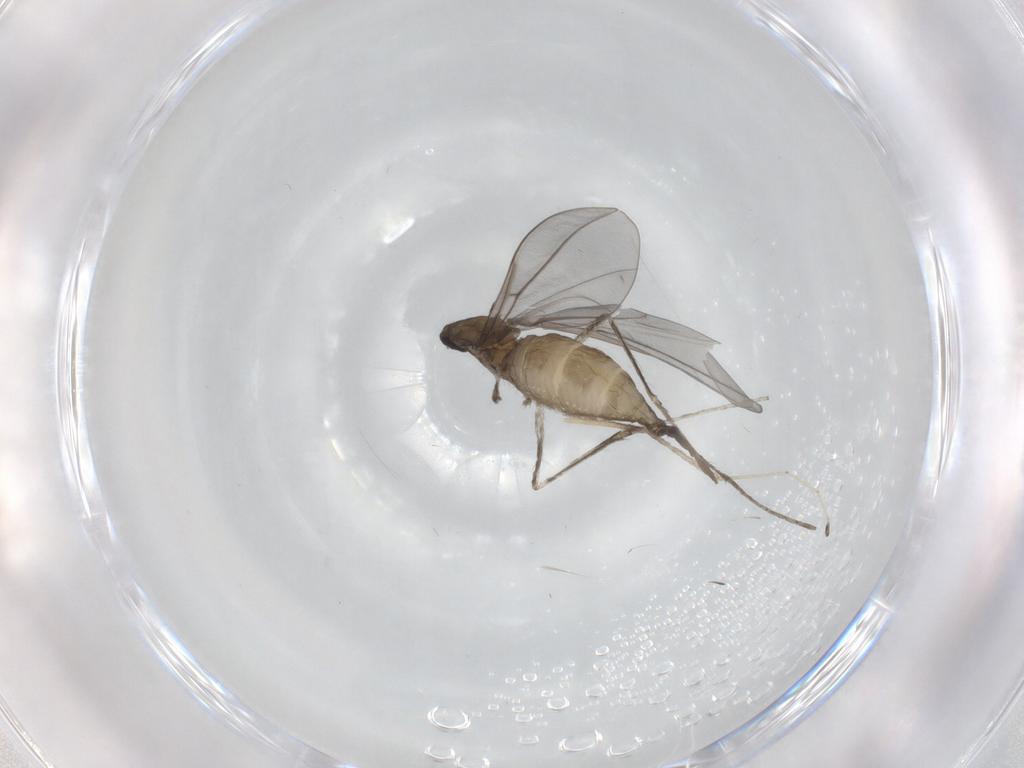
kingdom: Animalia
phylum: Arthropoda
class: Insecta
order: Diptera
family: Cecidomyiidae
